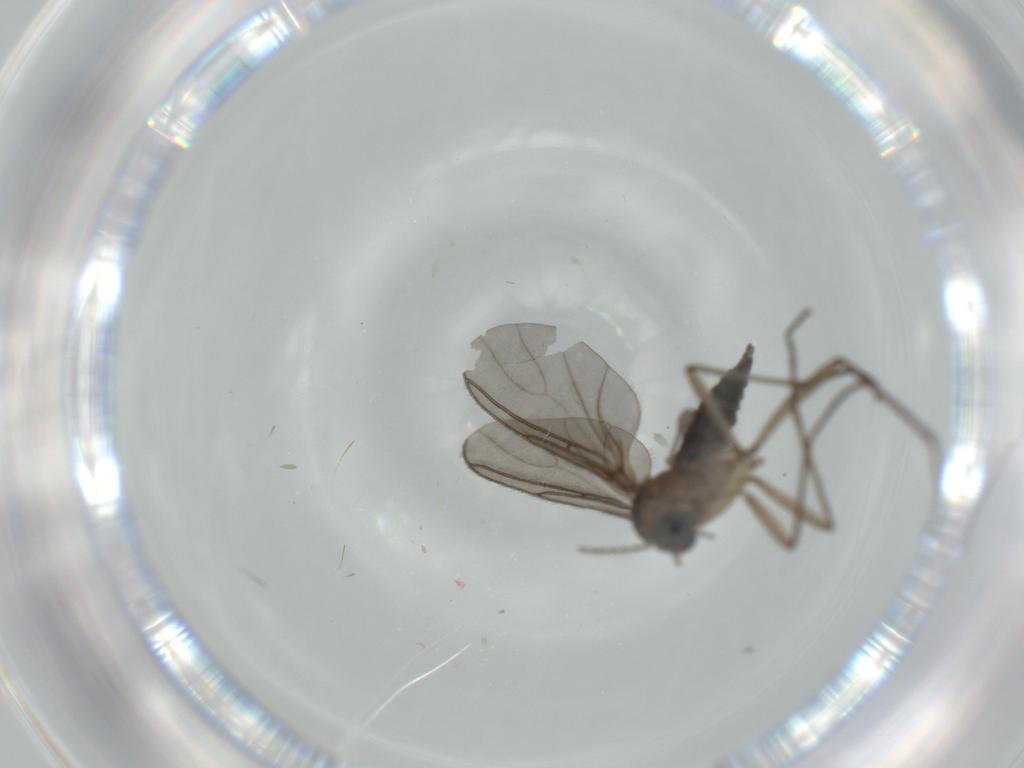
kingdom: Animalia
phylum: Arthropoda
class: Insecta
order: Diptera
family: Sciaridae
